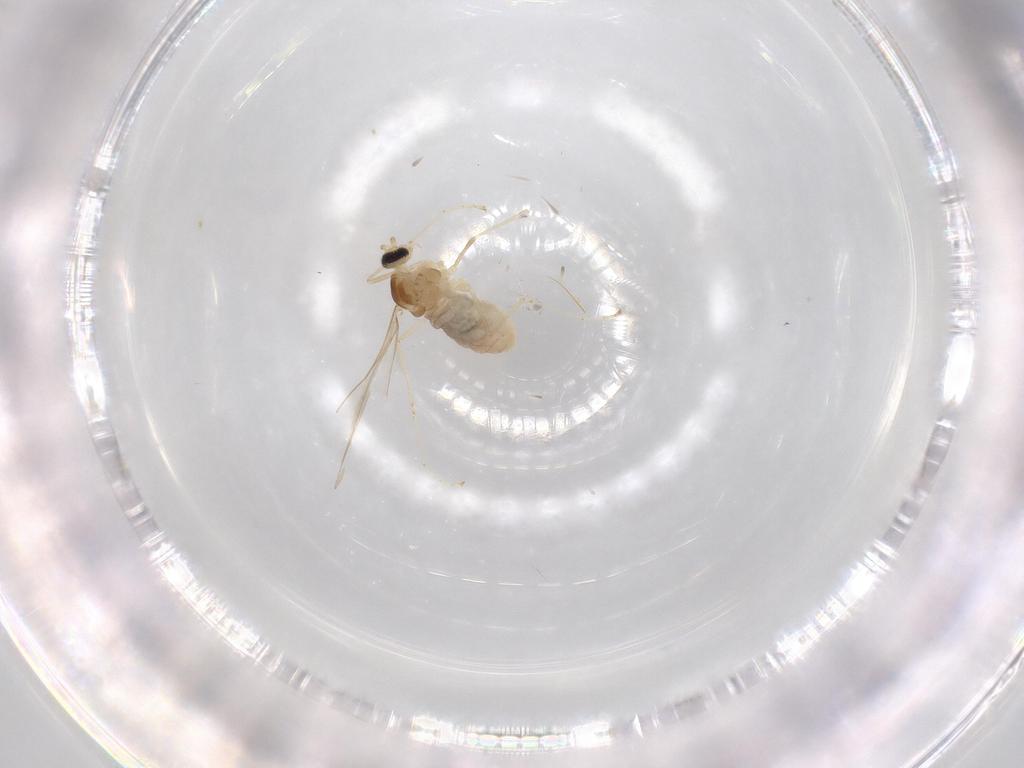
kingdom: Animalia
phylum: Arthropoda
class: Insecta
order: Diptera
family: Cecidomyiidae
